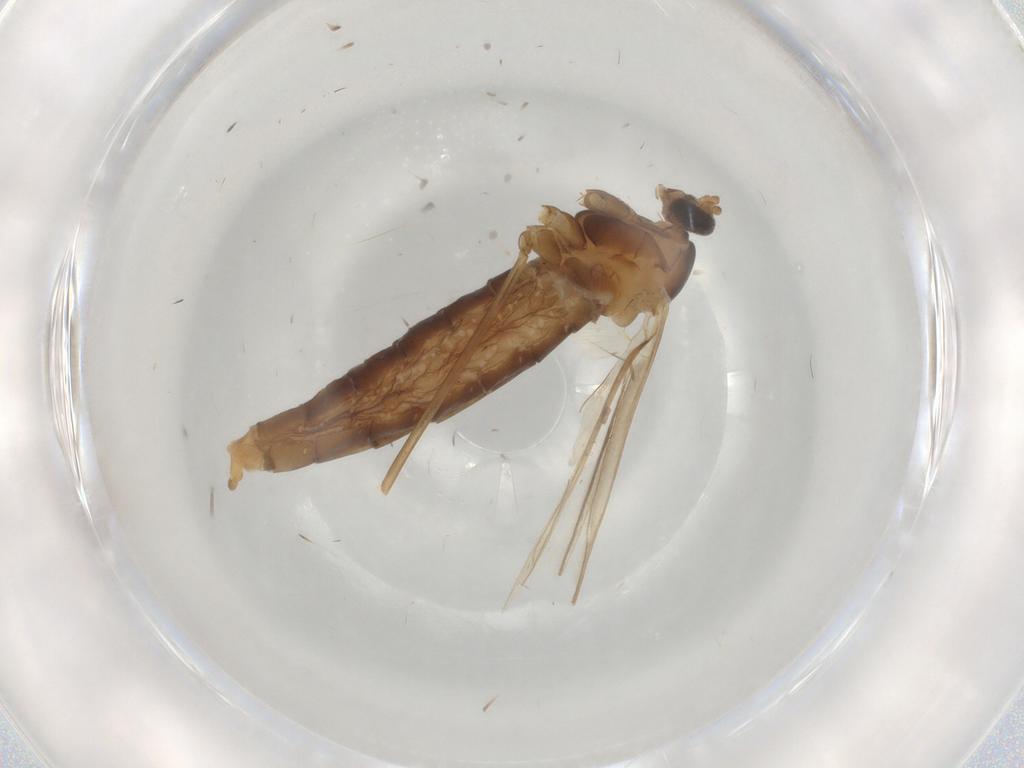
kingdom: Animalia
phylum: Arthropoda
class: Insecta
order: Diptera
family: Cecidomyiidae
